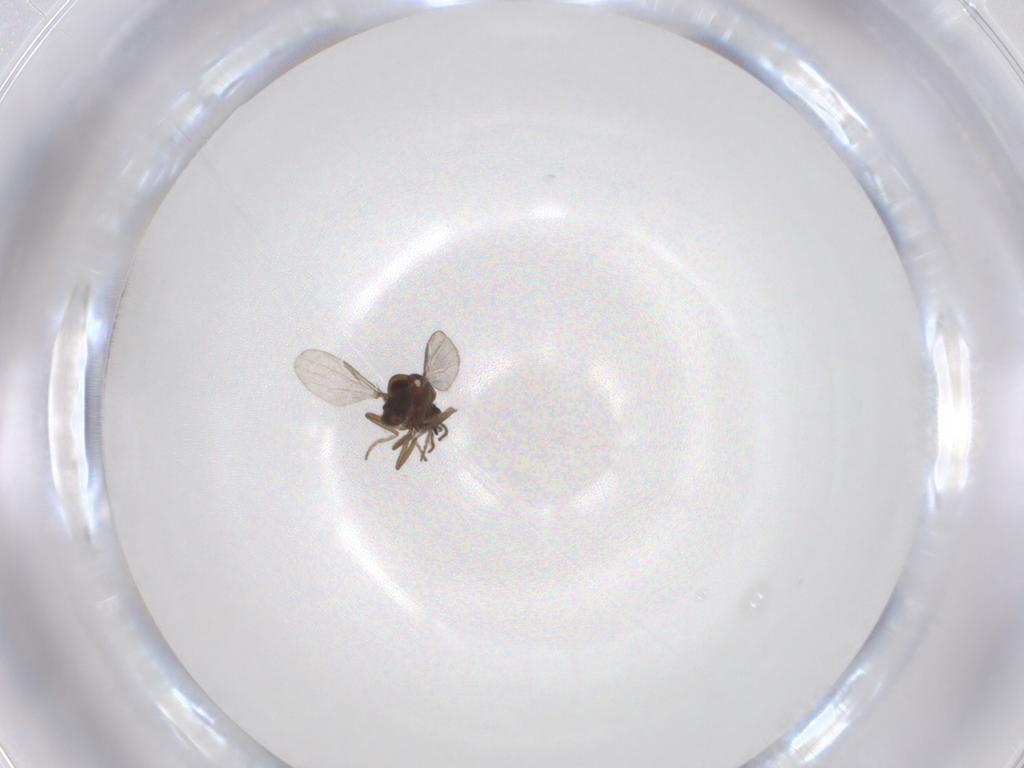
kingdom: Animalia
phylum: Arthropoda
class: Insecta
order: Diptera
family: Ceratopogonidae
